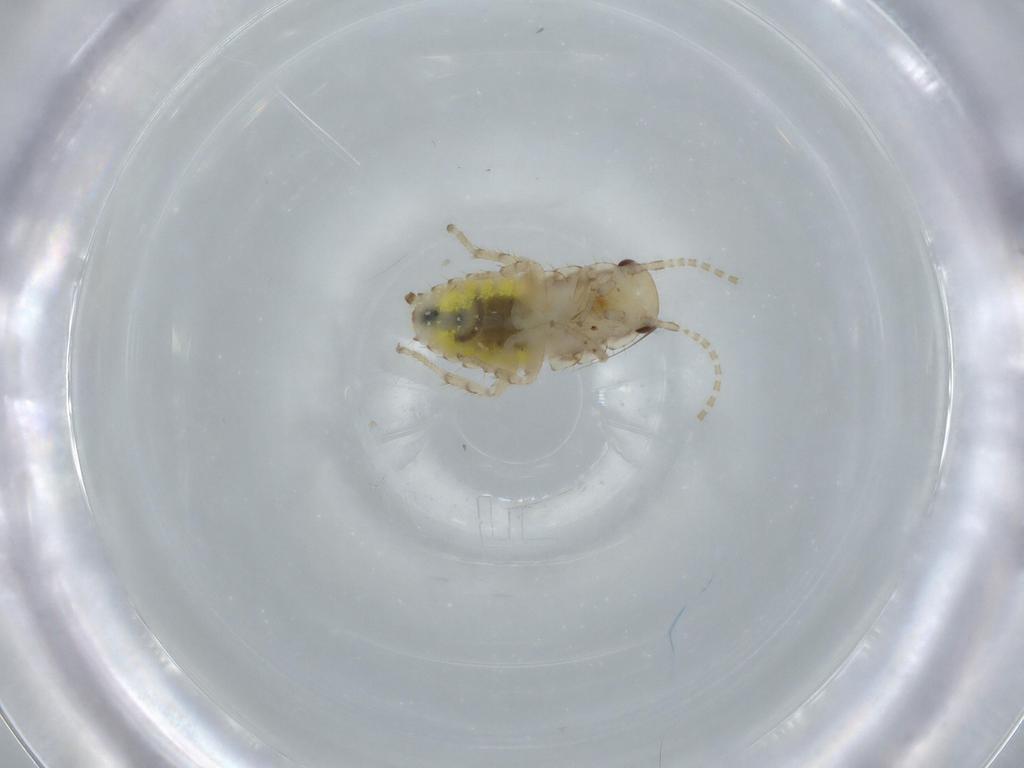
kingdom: Animalia
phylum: Arthropoda
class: Insecta
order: Blattodea
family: Ectobiidae
